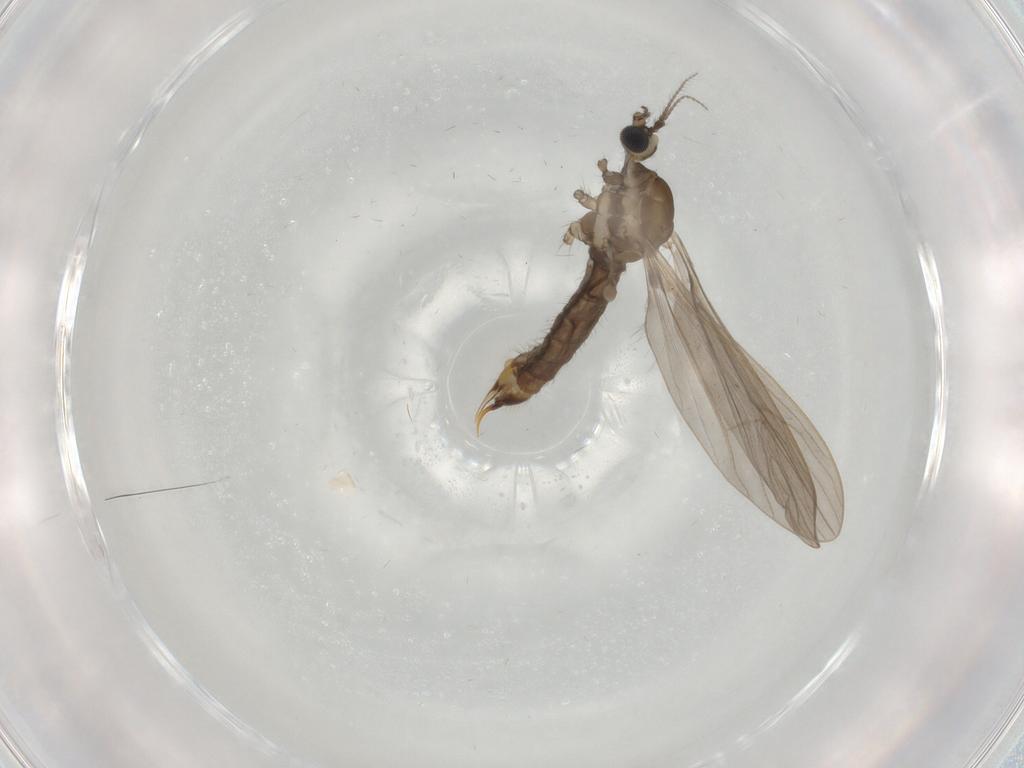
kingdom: Animalia
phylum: Arthropoda
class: Insecta
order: Diptera
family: Limoniidae
